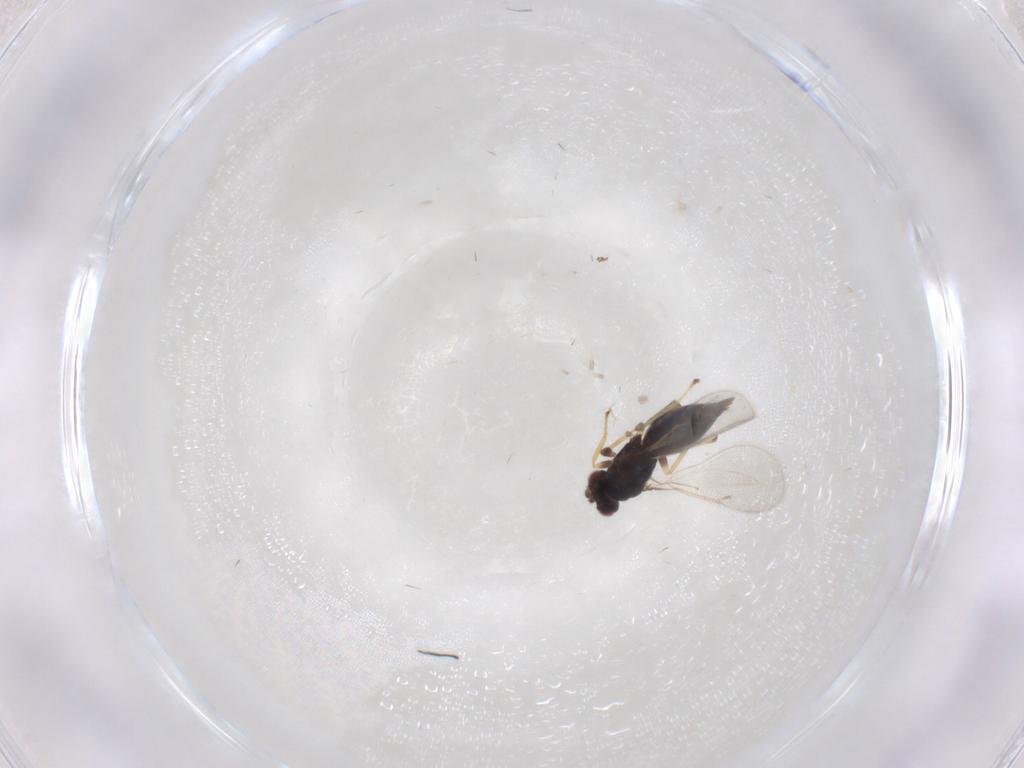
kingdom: Animalia
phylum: Arthropoda
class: Insecta
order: Hymenoptera
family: Eulophidae
